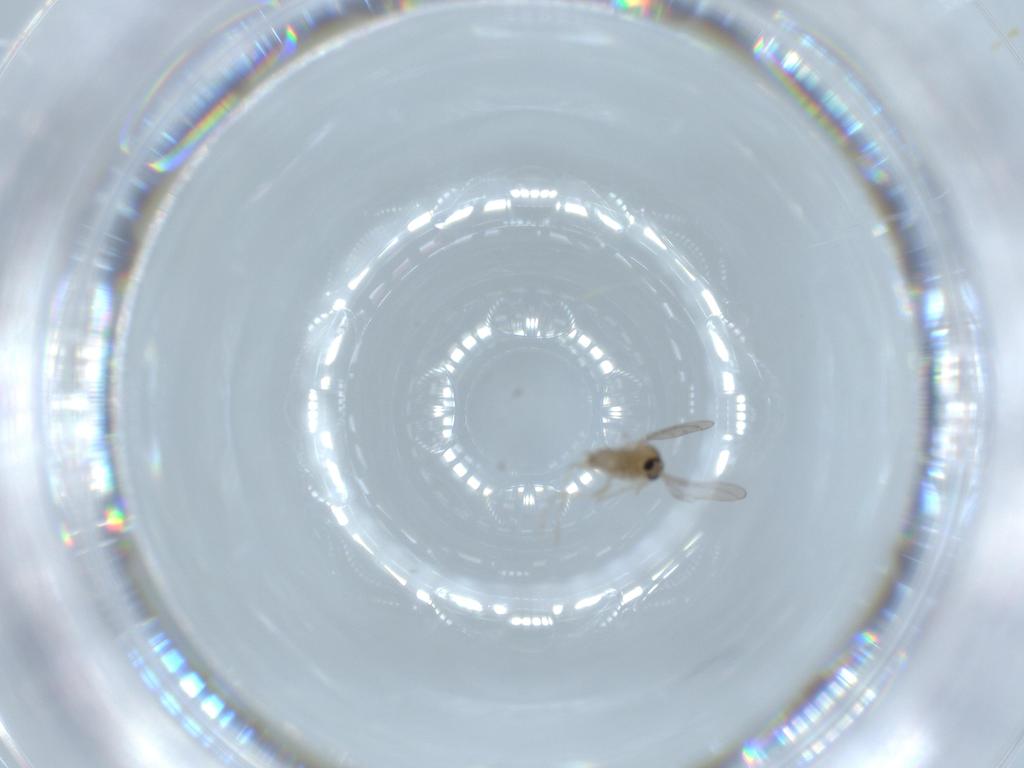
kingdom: Animalia
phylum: Arthropoda
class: Insecta
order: Diptera
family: Cecidomyiidae
